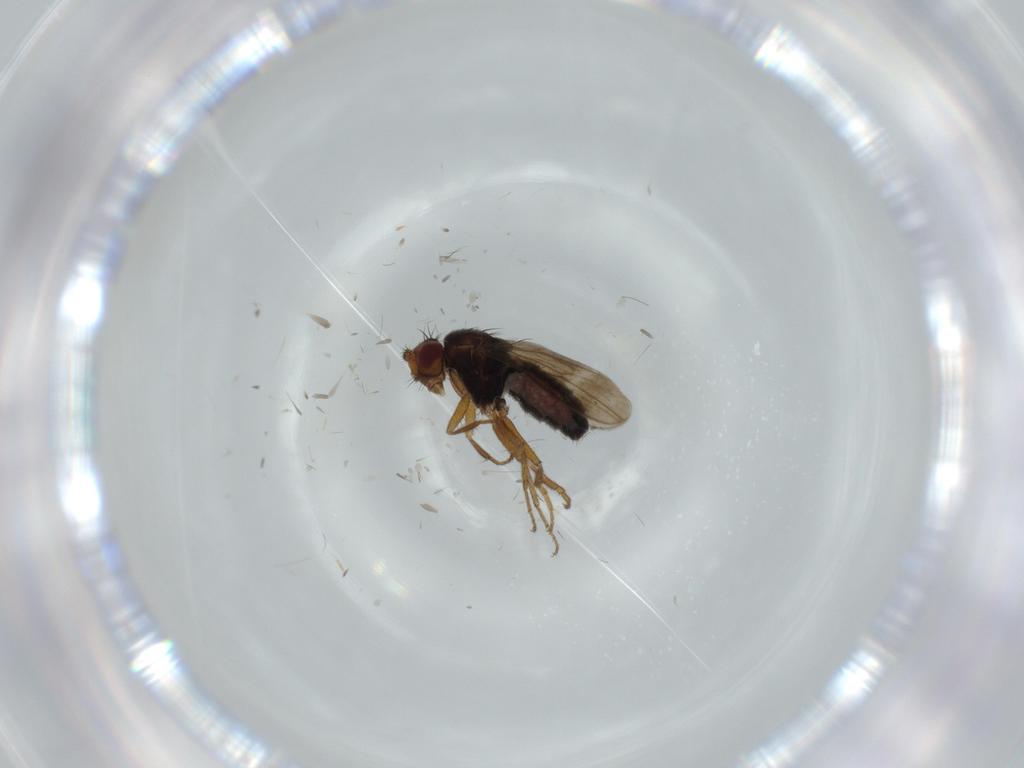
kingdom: Animalia
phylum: Arthropoda
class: Insecta
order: Diptera
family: Sphaeroceridae
